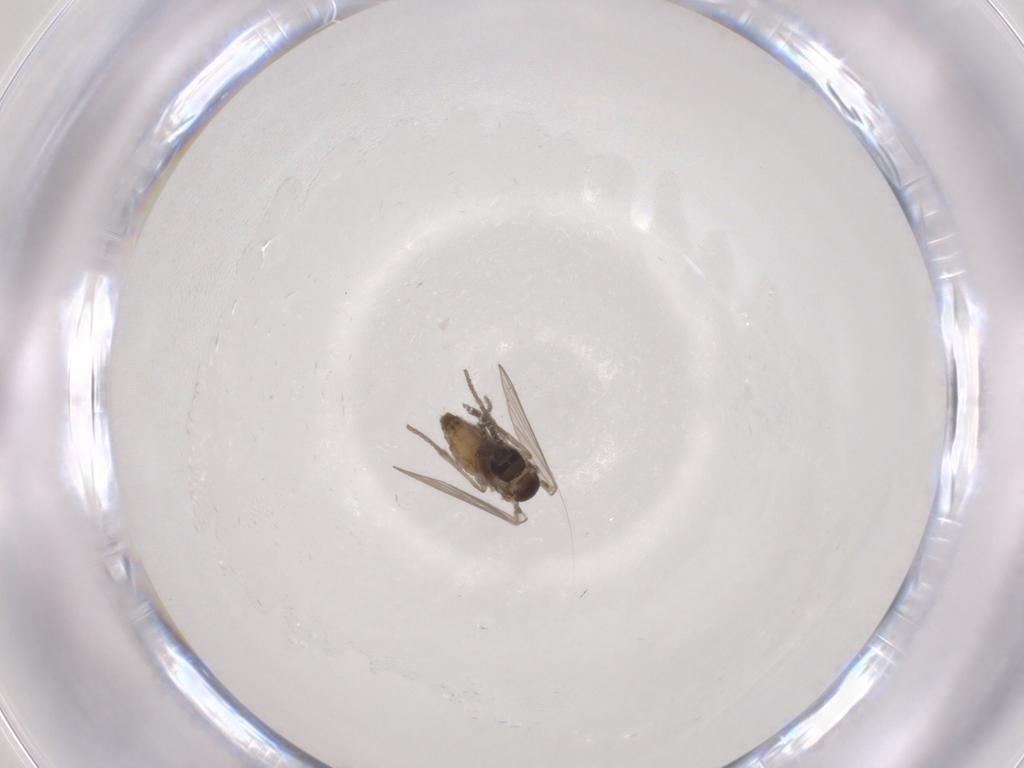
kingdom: Animalia
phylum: Arthropoda
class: Insecta
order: Diptera
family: Psychodidae
